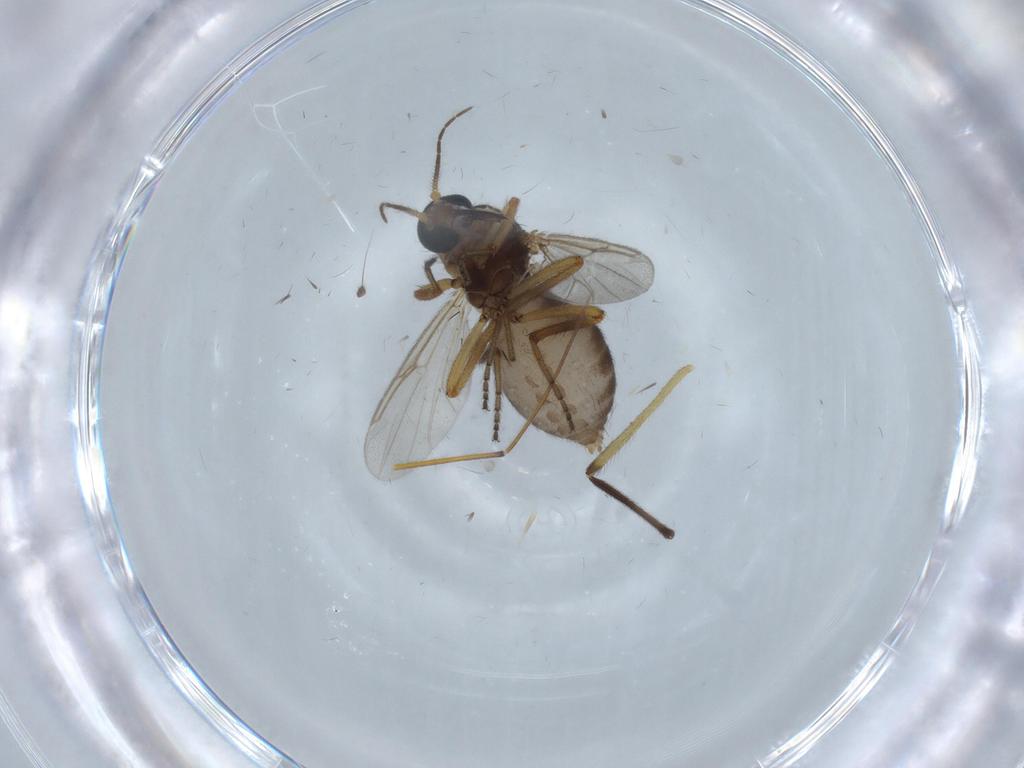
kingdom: Animalia
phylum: Arthropoda
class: Insecta
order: Diptera
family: Ceratopogonidae
